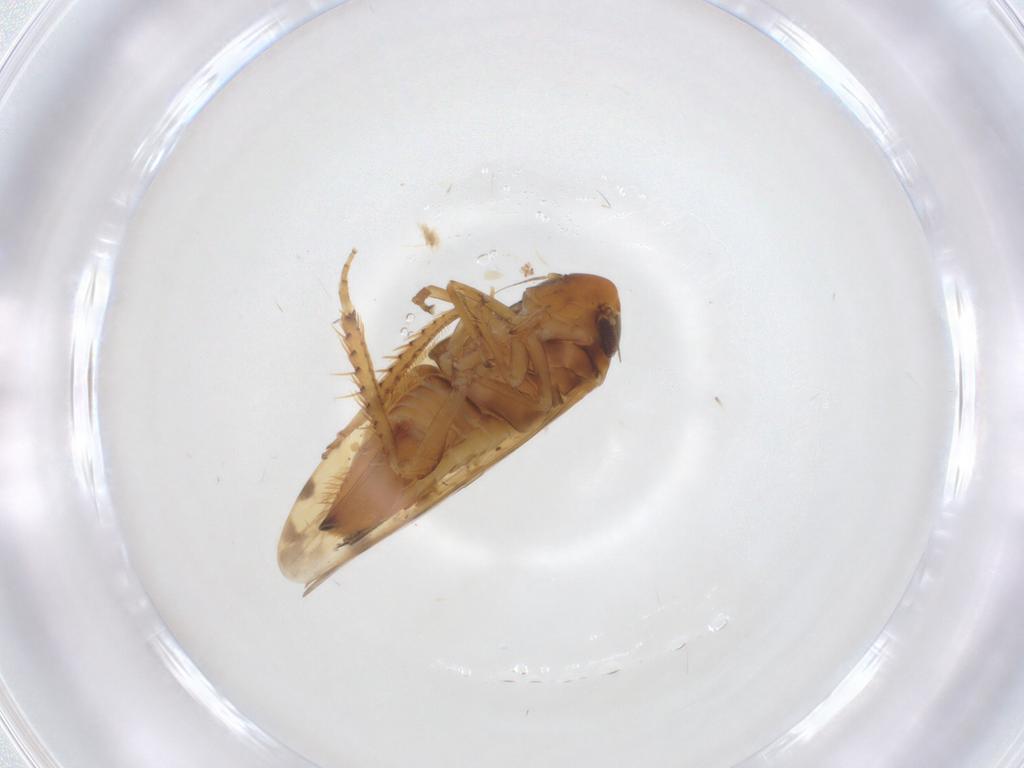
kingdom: Animalia
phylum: Arthropoda
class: Insecta
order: Hemiptera
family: Cicadellidae
